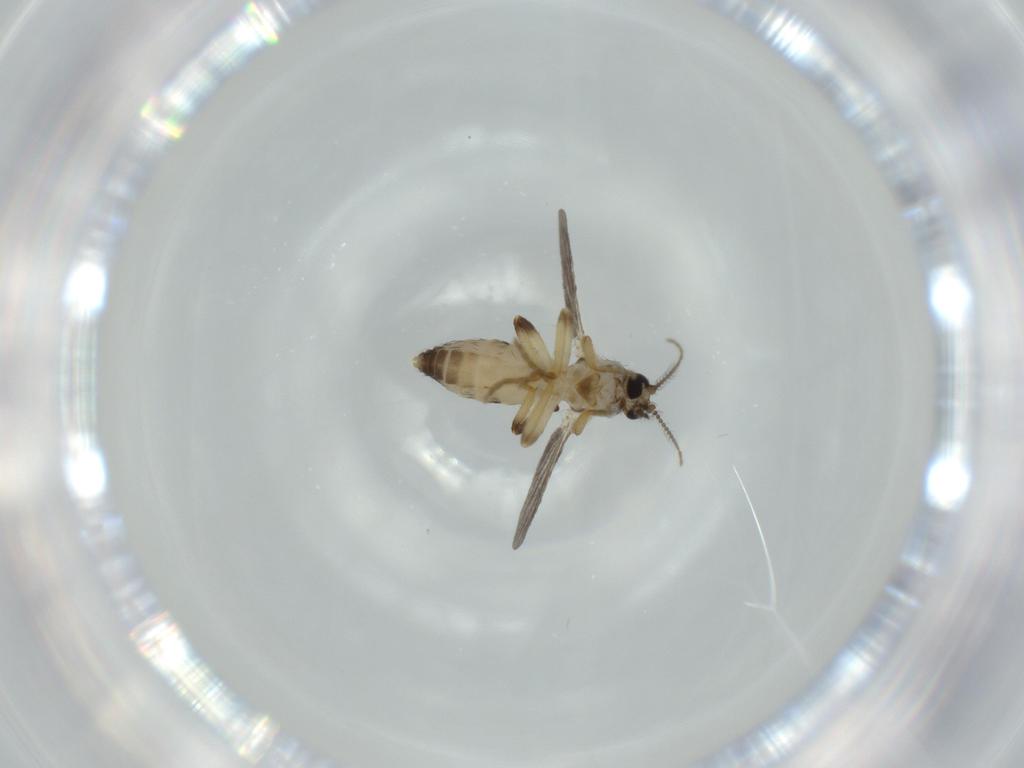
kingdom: Animalia
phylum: Arthropoda
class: Insecta
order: Diptera
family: Ceratopogonidae
